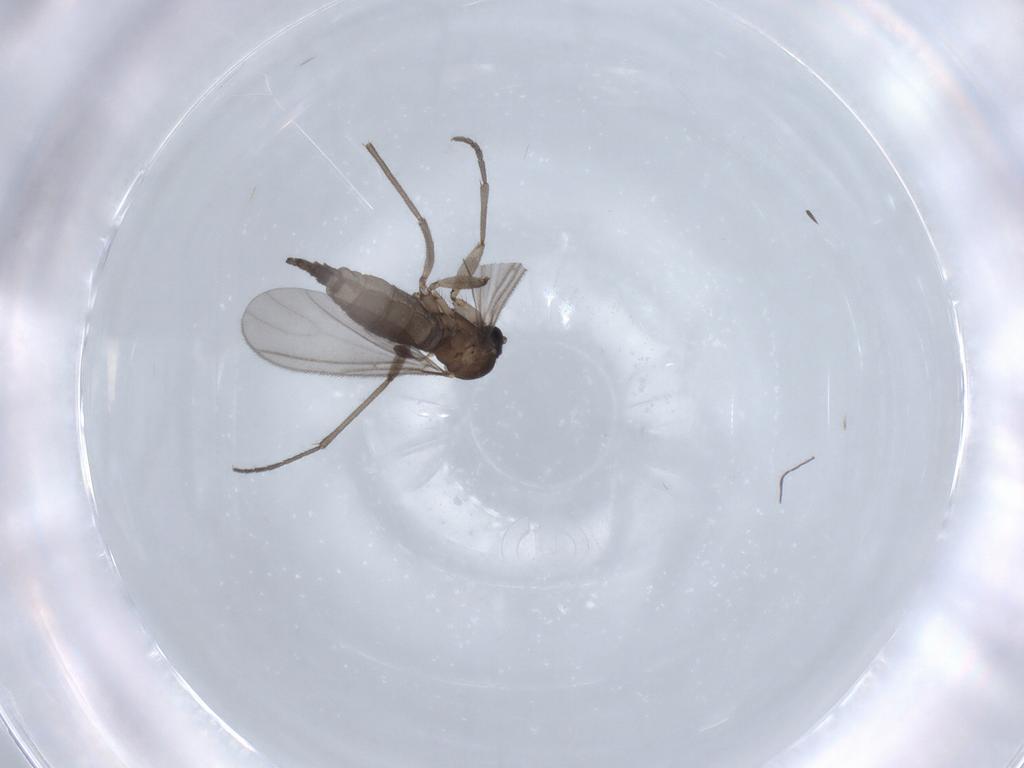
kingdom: Animalia
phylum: Arthropoda
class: Insecta
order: Diptera
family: Sciaridae
